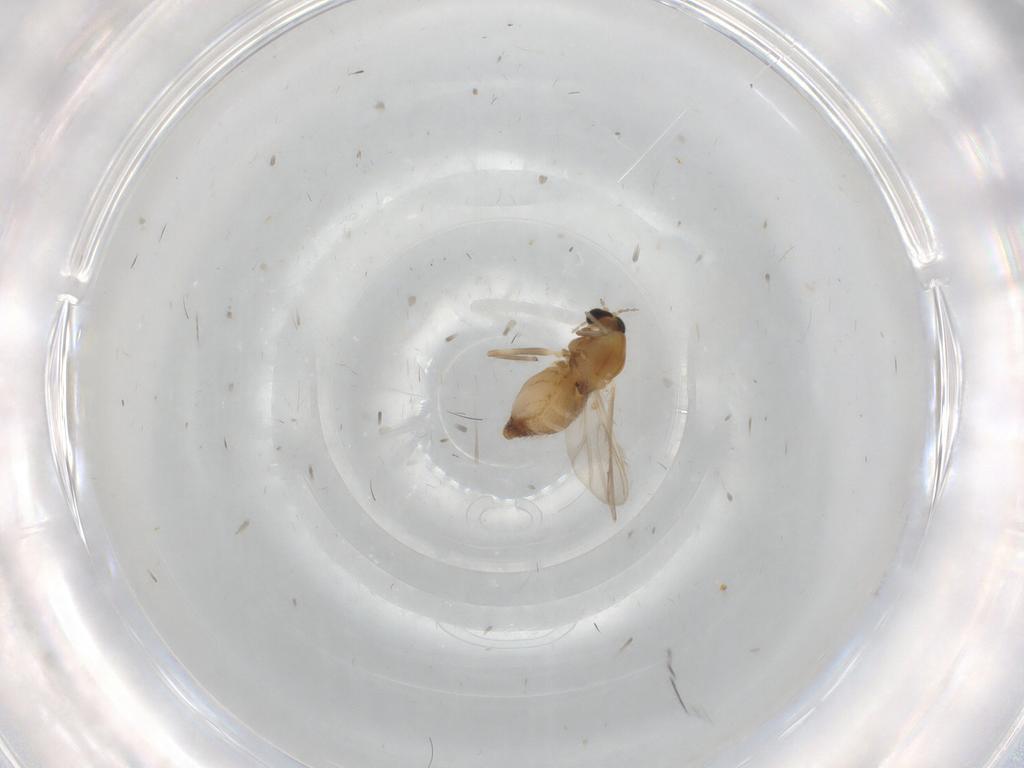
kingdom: Animalia
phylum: Arthropoda
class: Insecta
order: Diptera
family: Chironomidae
